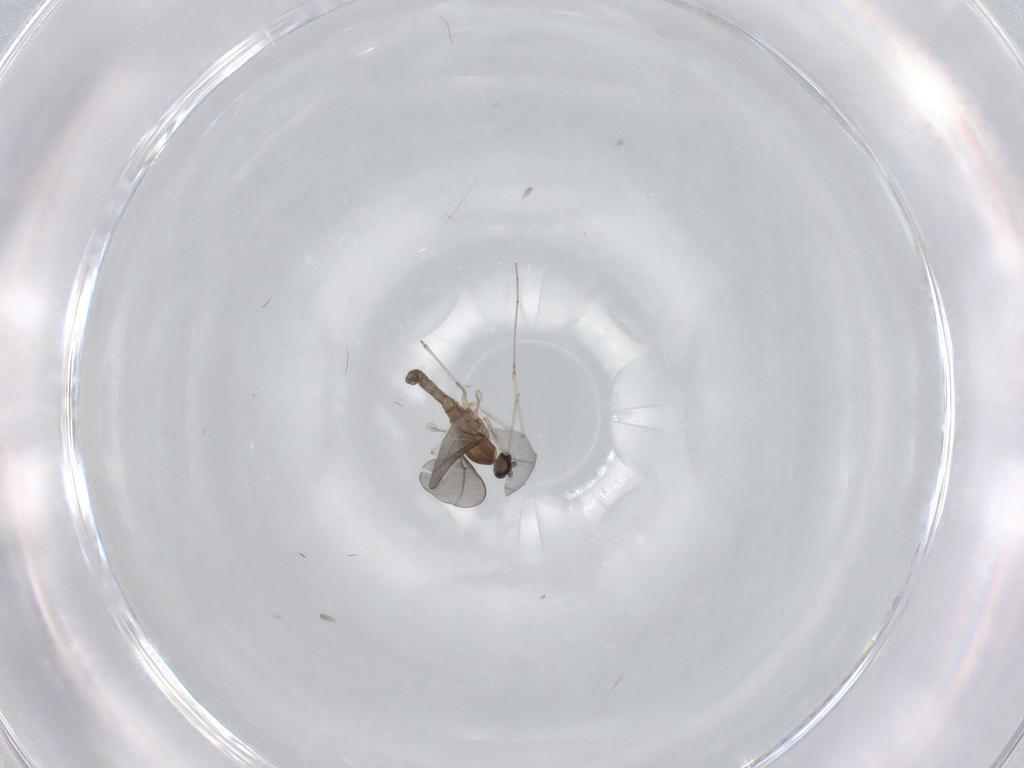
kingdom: Animalia
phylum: Arthropoda
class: Insecta
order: Diptera
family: Cecidomyiidae
